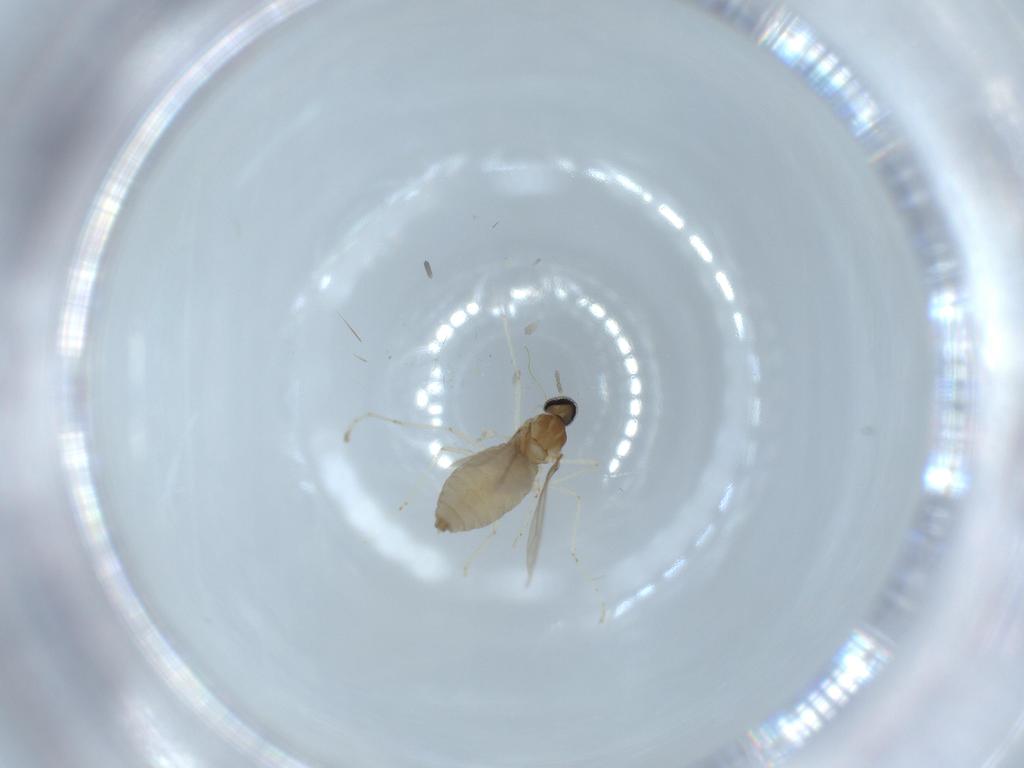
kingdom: Animalia
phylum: Arthropoda
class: Insecta
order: Diptera
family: Cecidomyiidae
